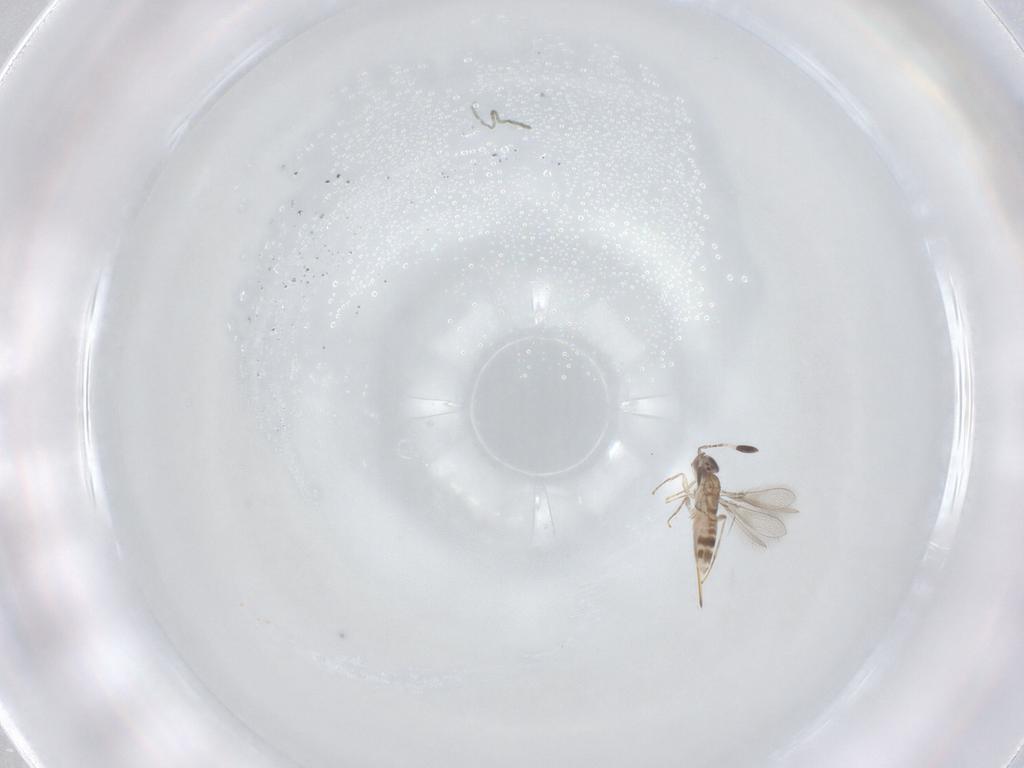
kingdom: Animalia
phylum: Arthropoda
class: Insecta
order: Hymenoptera
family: Mymaridae
